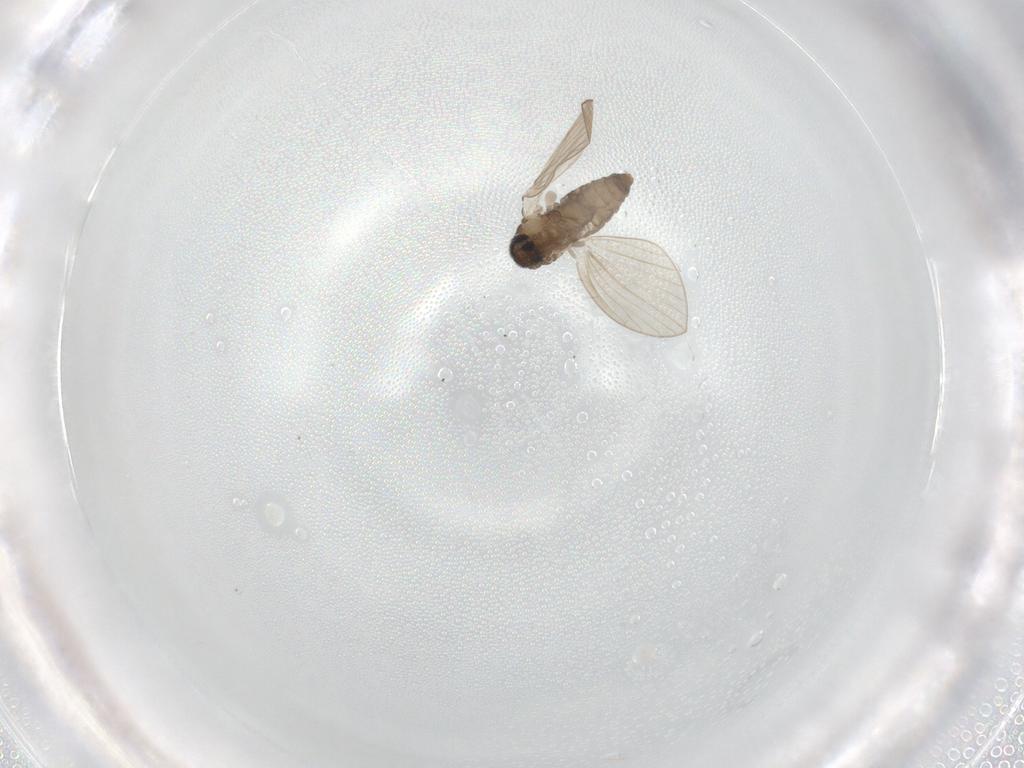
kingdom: Animalia
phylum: Arthropoda
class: Insecta
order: Diptera
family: Psychodidae
